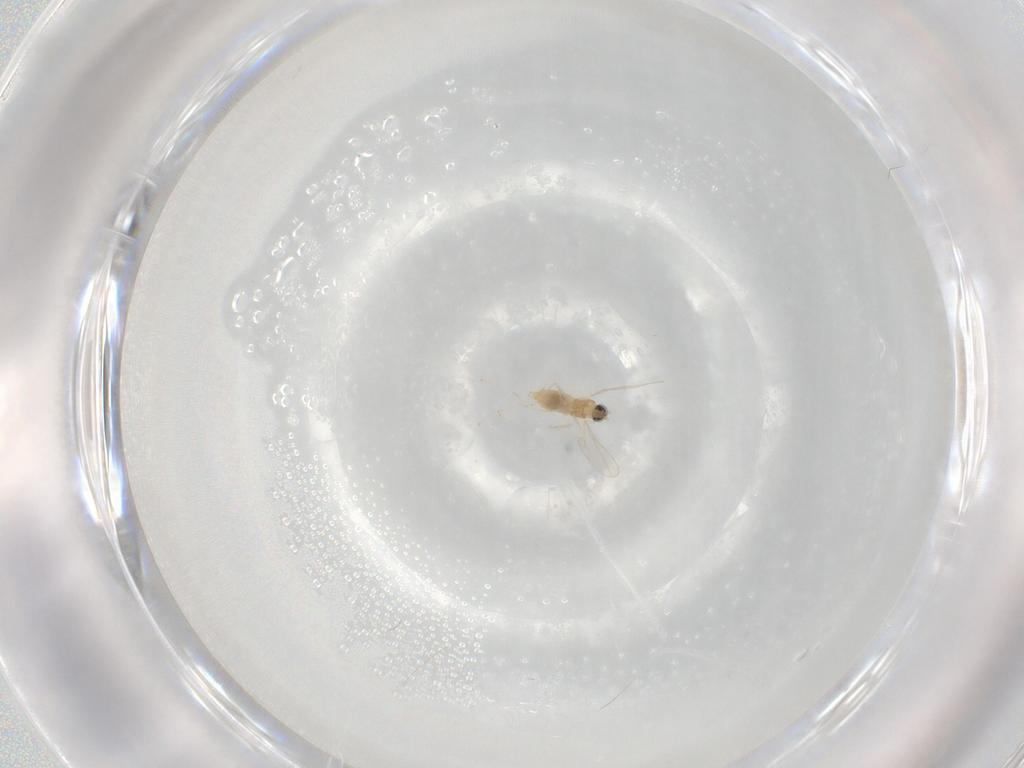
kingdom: Animalia
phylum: Arthropoda
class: Insecta
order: Diptera
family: Cecidomyiidae
